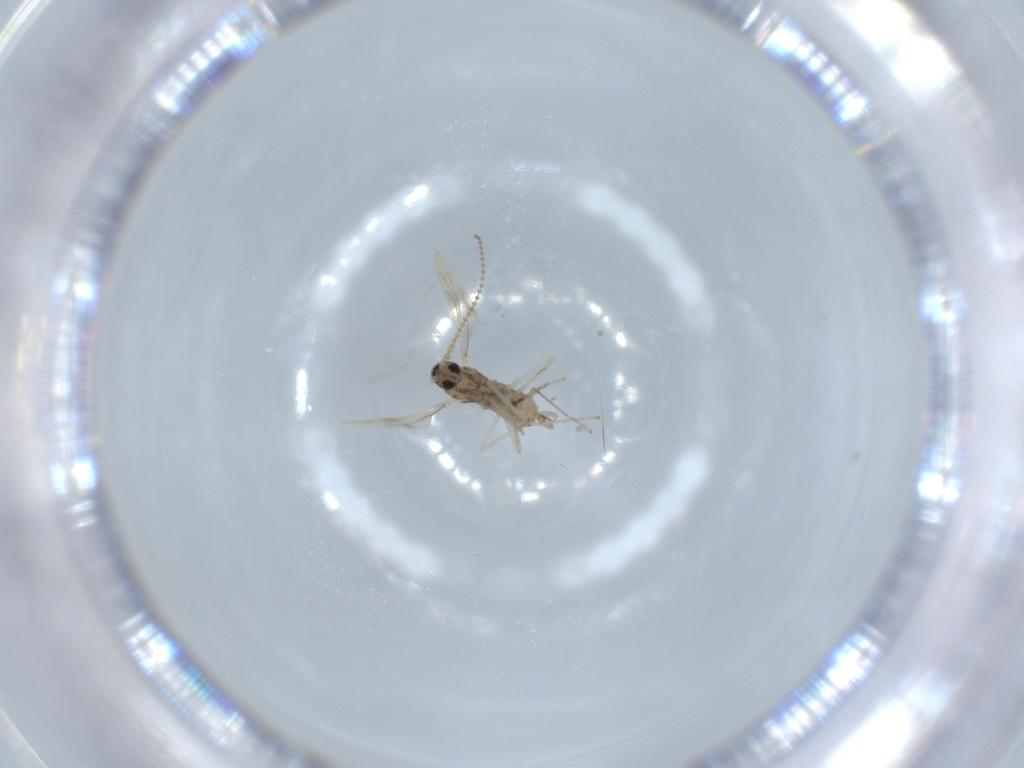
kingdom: Animalia
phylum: Arthropoda
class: Insecta
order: Diptera
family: Cecidomyiidae
